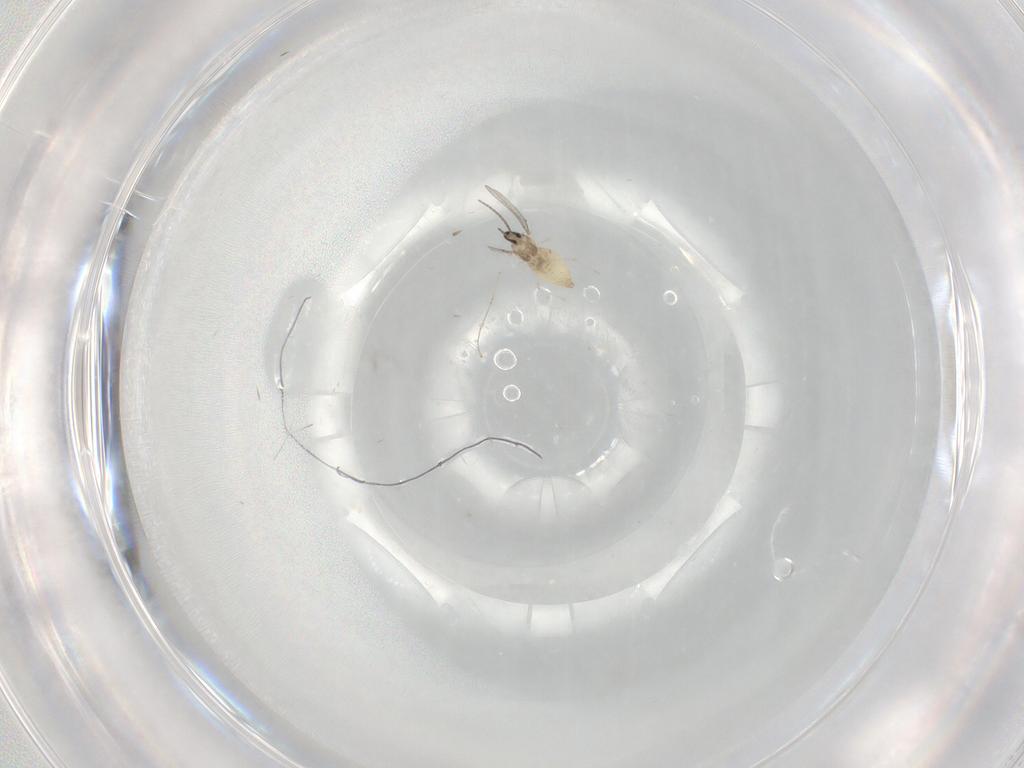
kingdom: Animalia
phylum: Arthropoda
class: Insecta
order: Diptera
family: Cecidomyiidae
